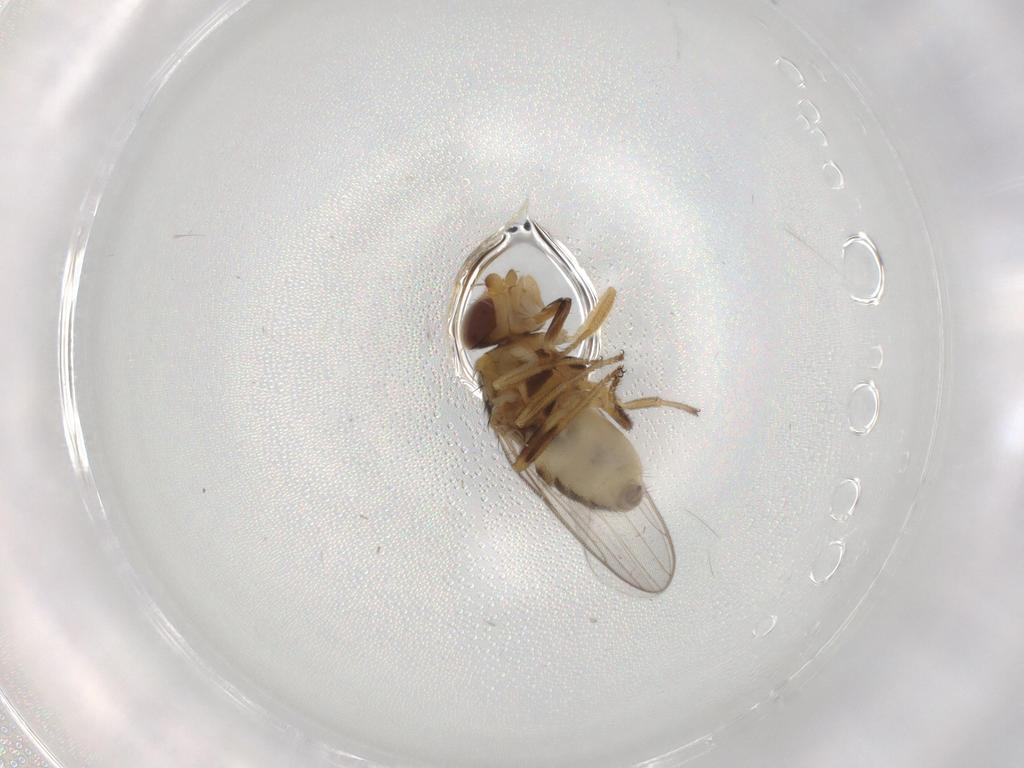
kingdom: Animalia
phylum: Arthropoda
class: Insecta
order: Diptera
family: Chloropidae
